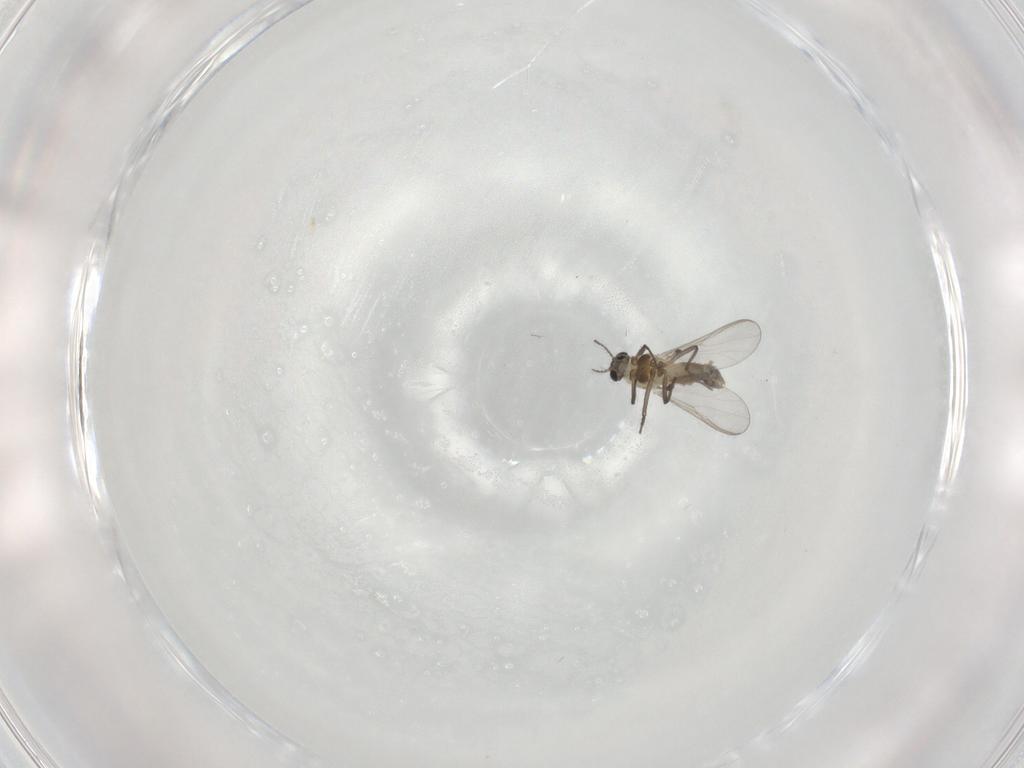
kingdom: Animalia
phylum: Arthropoda
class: Insecta
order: Diptera
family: Chironomidae
